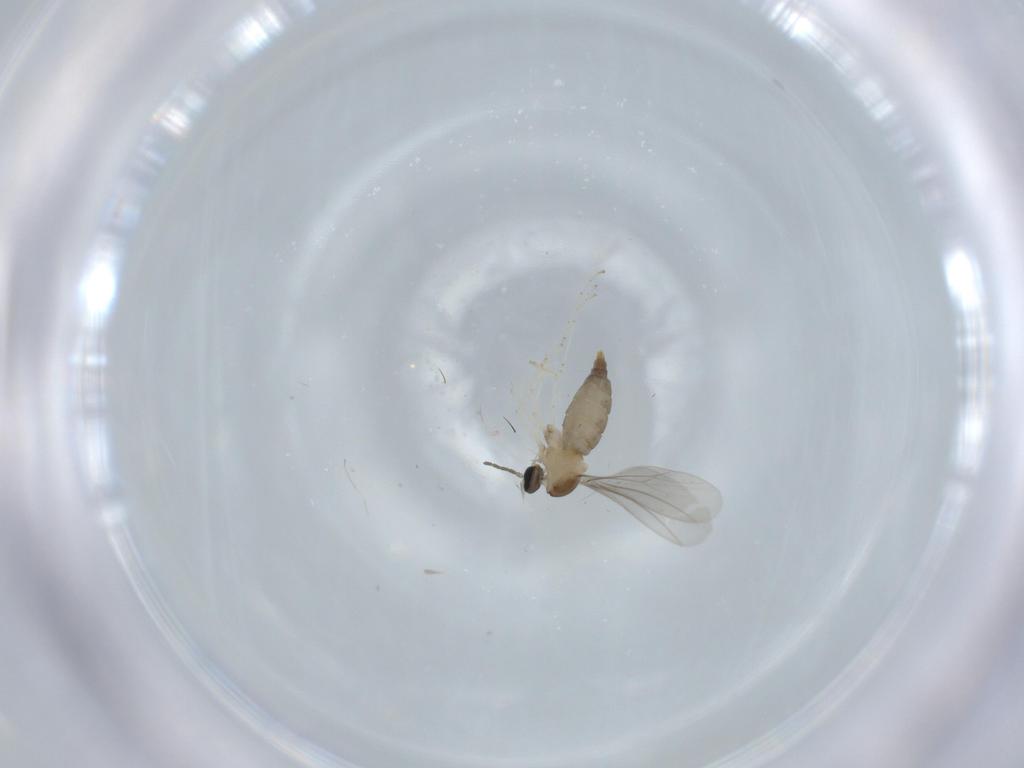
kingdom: Animalia
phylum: Arthropoda
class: Insecta
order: Diptera
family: Cecidomyiidae
